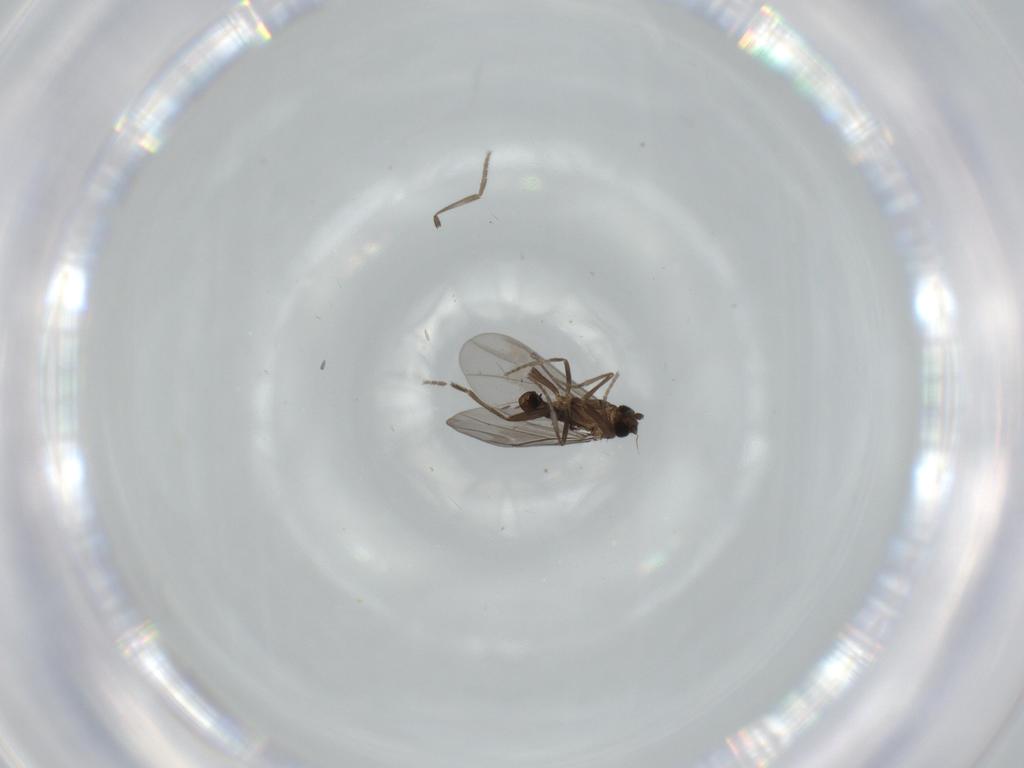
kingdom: Animalia
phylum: Arthropoda
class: Insecta
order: Diptera
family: Phoridae
